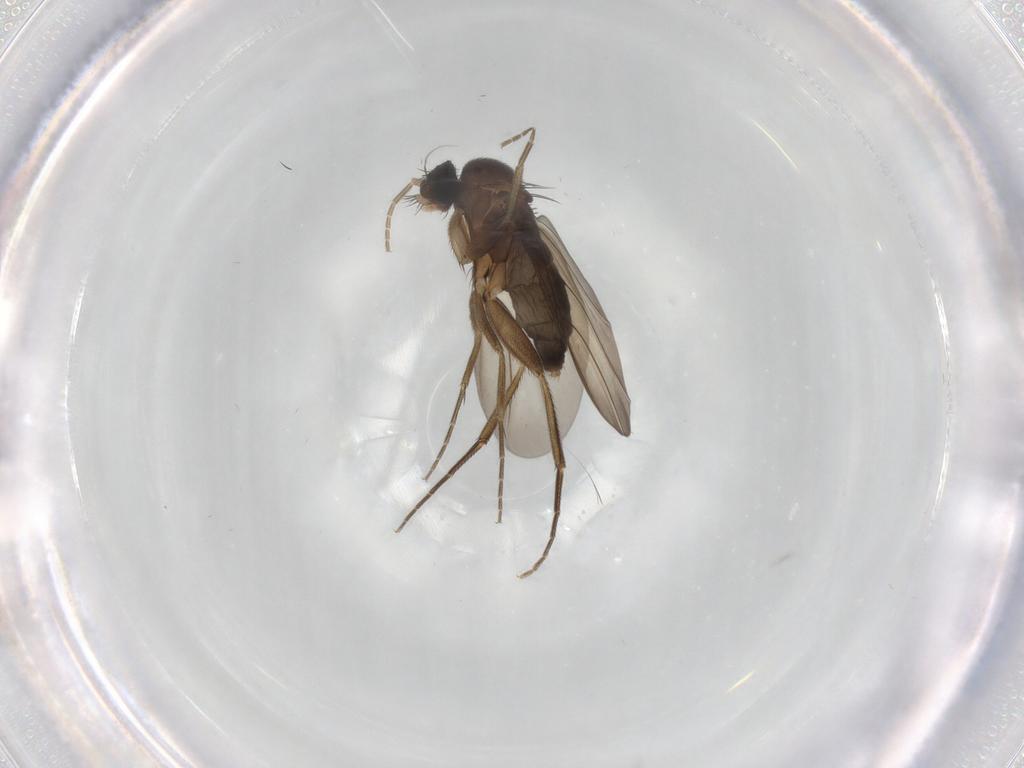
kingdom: Animalia
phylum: Arthropoda
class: Insecta
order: Diptera
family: Phoridae
